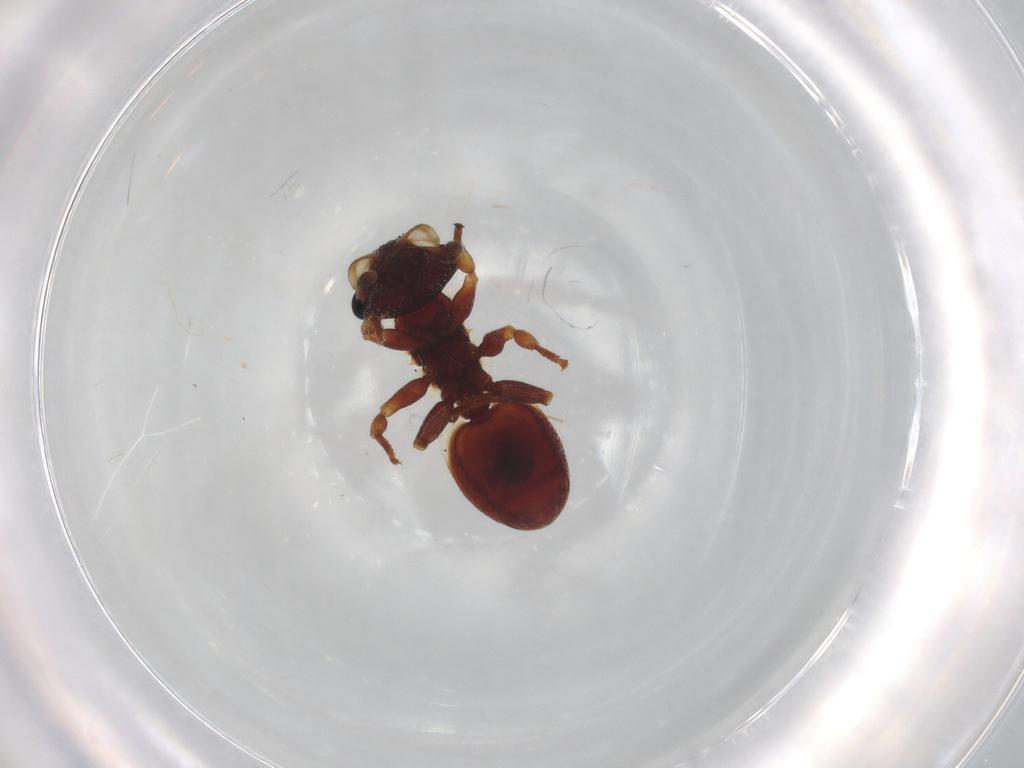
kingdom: Animalia
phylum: Arthropoda
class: Insecta
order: Hymenoptera
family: Formicidae
